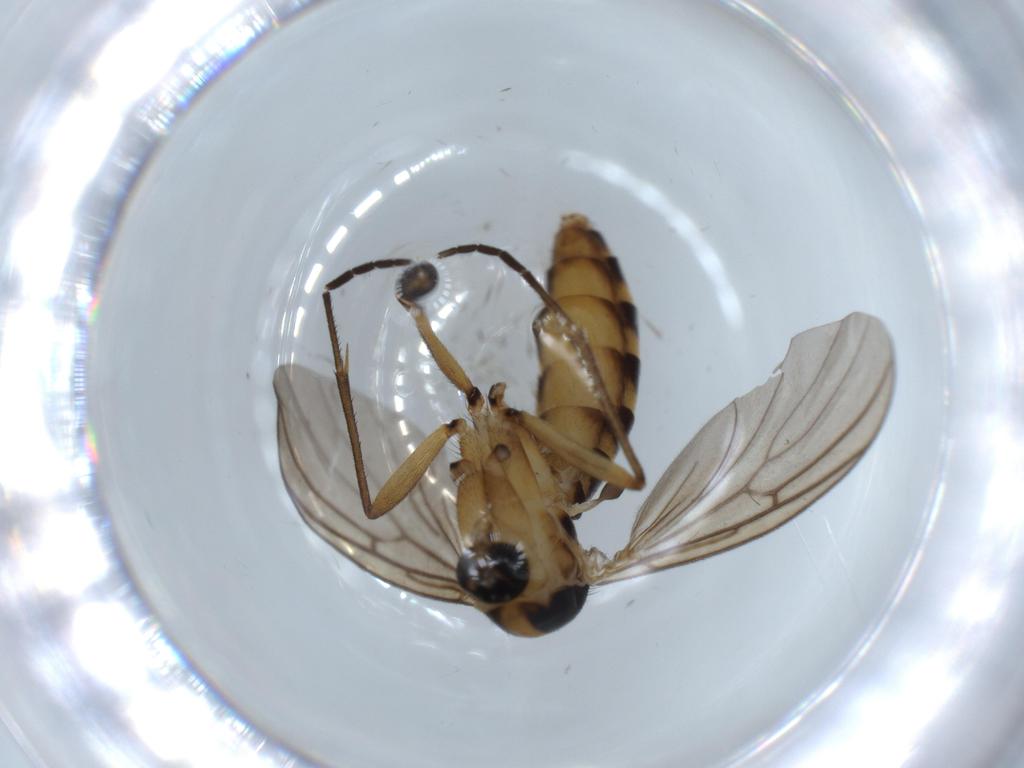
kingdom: Animalia
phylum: Arthropoda
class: Insecta
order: Diptera
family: Mycetophilidae
